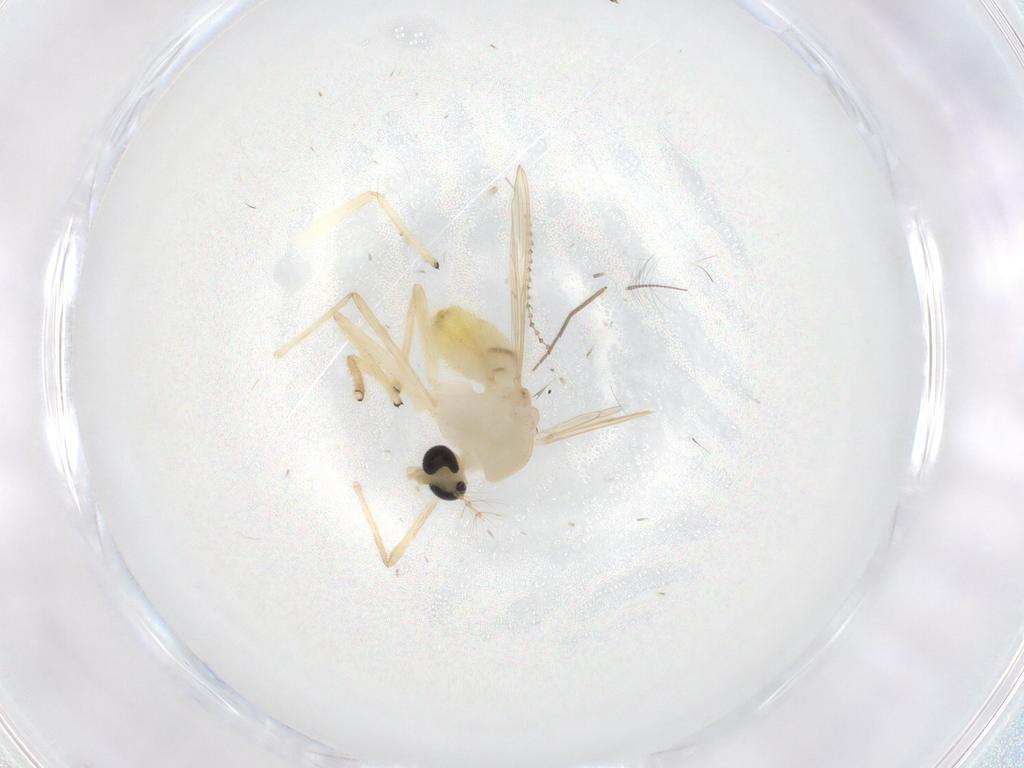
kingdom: Animalia
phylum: Arthropoda
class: Insecta
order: Diptera
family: Chironomidae
